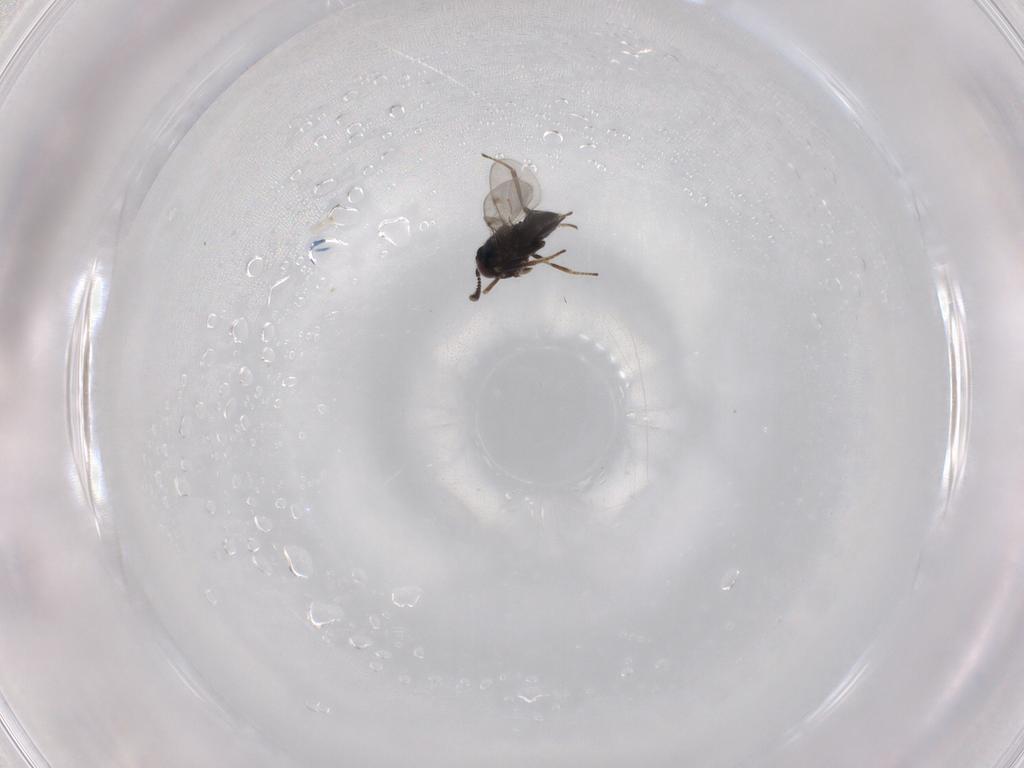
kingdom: Animalia
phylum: Arthropoda
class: Insecta
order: Hymenoptera
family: Encyrtidae
